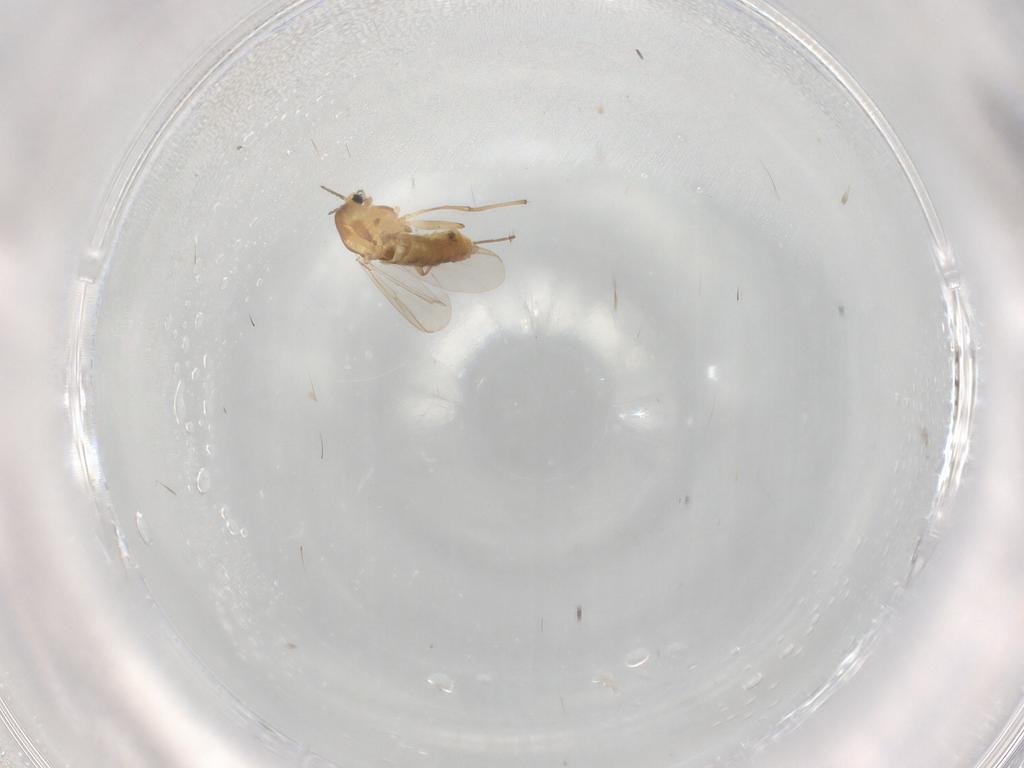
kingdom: Animalia
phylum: Arthropoda
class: Insecta
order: Diptera
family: Chironomidae
